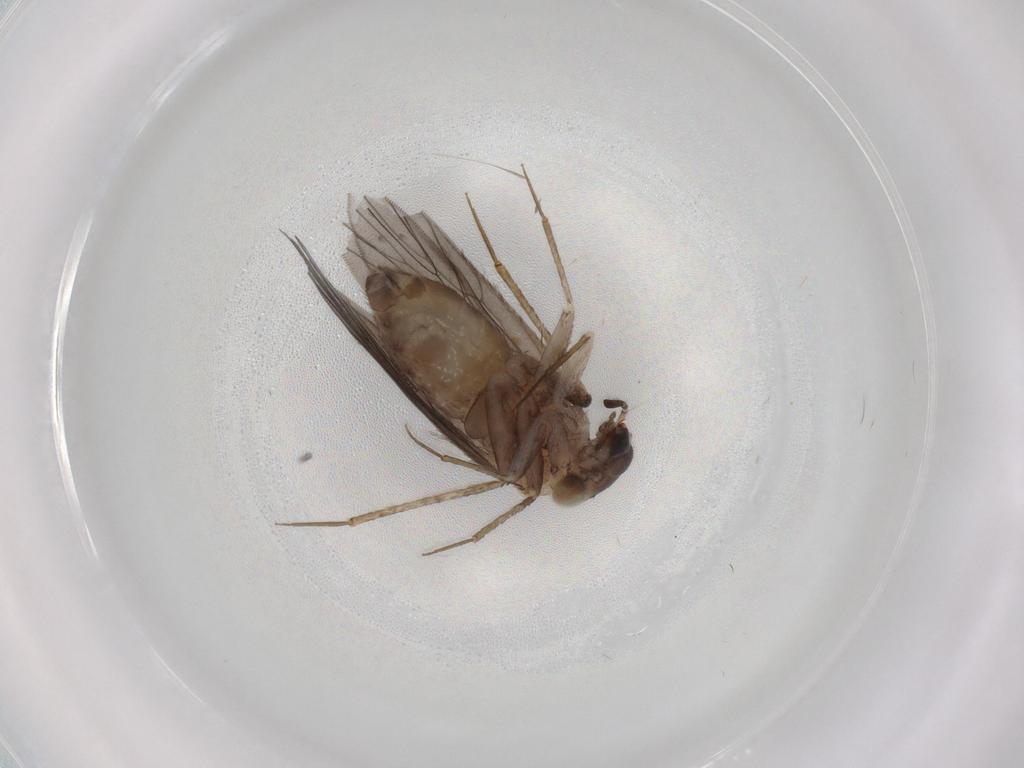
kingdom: Animalia
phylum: Arthropoda
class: Insecta
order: Psocodea
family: Lepidopsocidae
